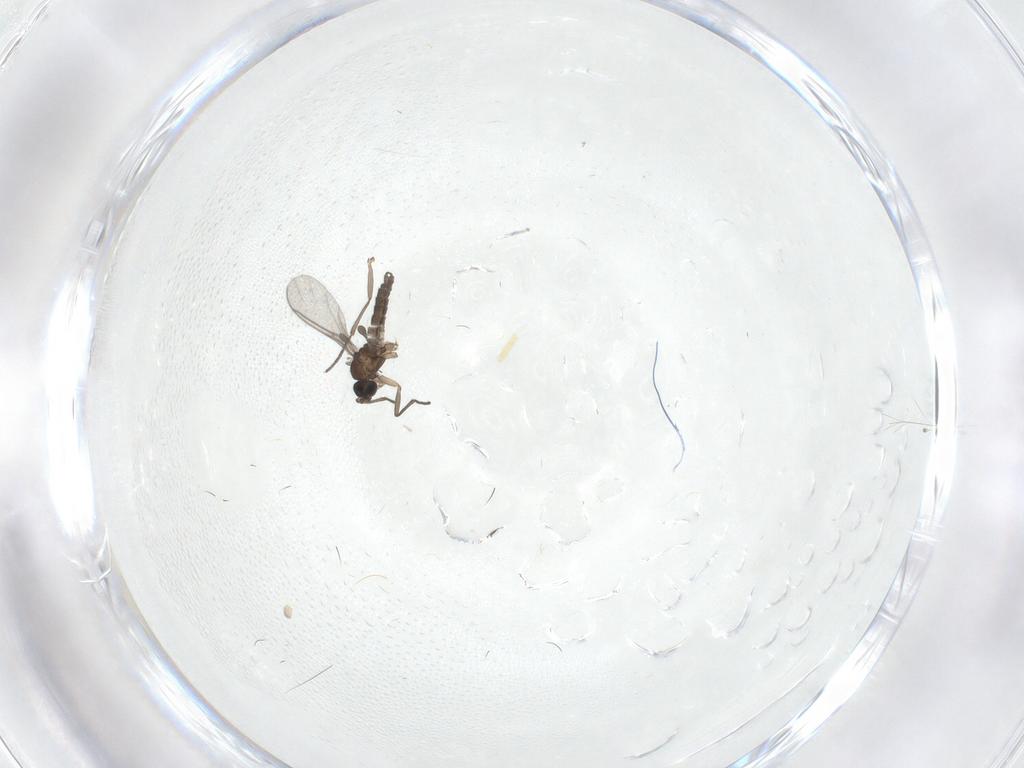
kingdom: Animalia
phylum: Arthropoda
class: Insecta
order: Diptera
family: Sciaridae
